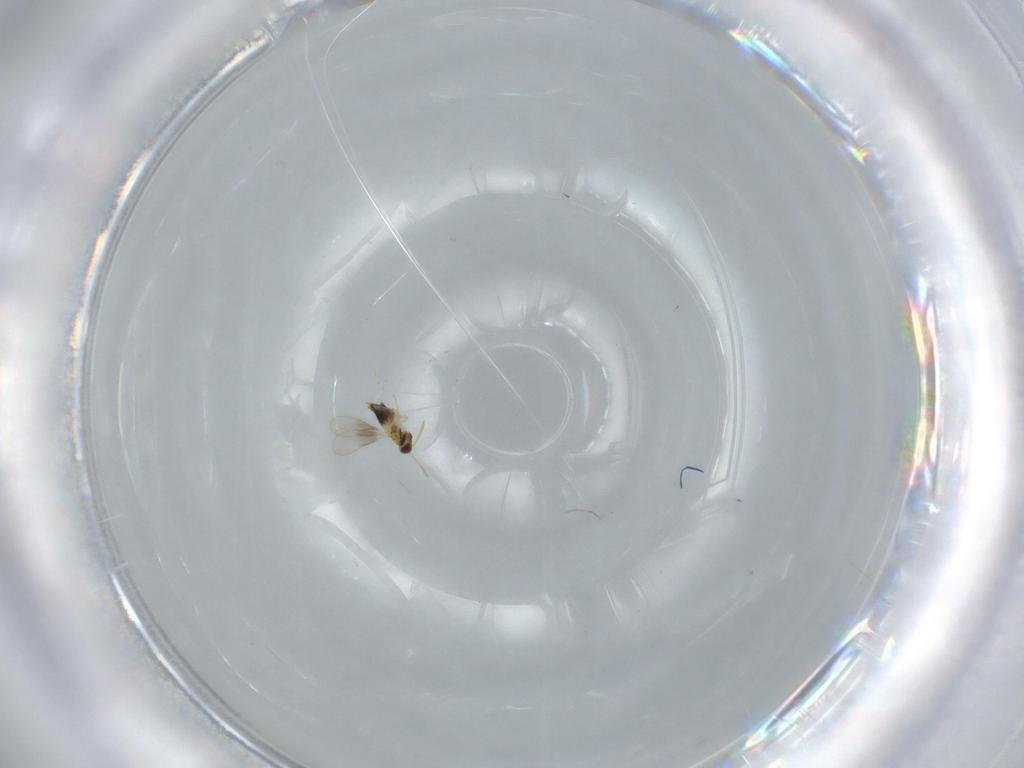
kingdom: Animalia
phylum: Arthropoda
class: Insecta
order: Hymenoptera
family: Aphelinidae
